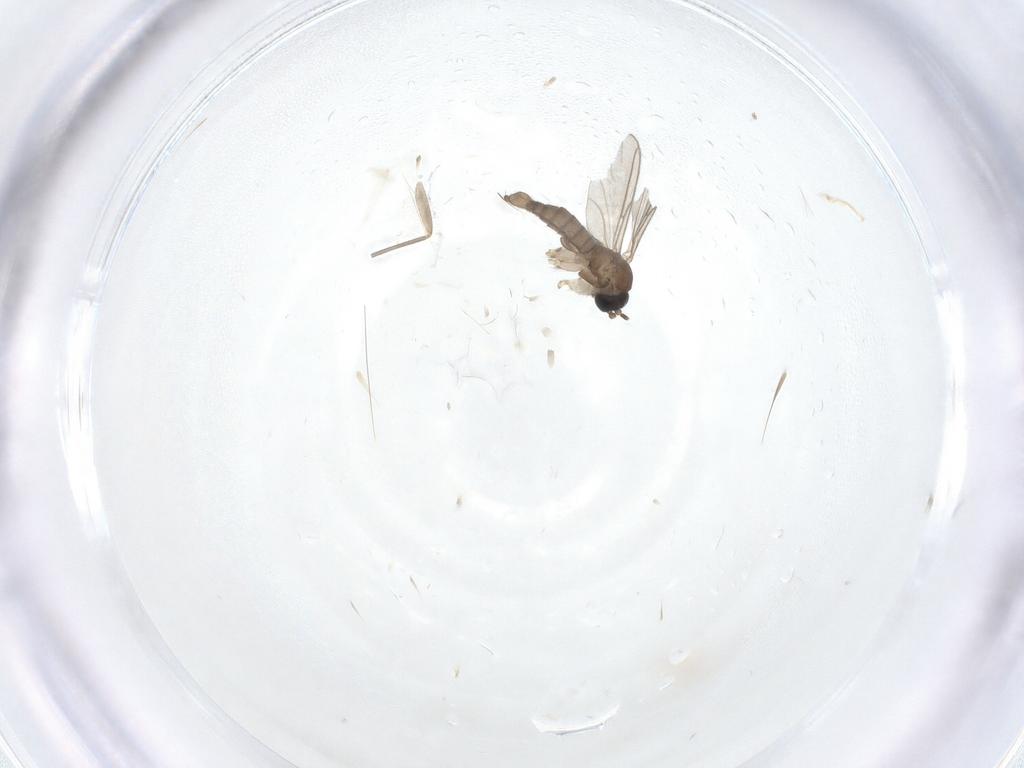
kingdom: Animalia
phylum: Arthropoda
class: Insecta
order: Diptera
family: Sciaridae
